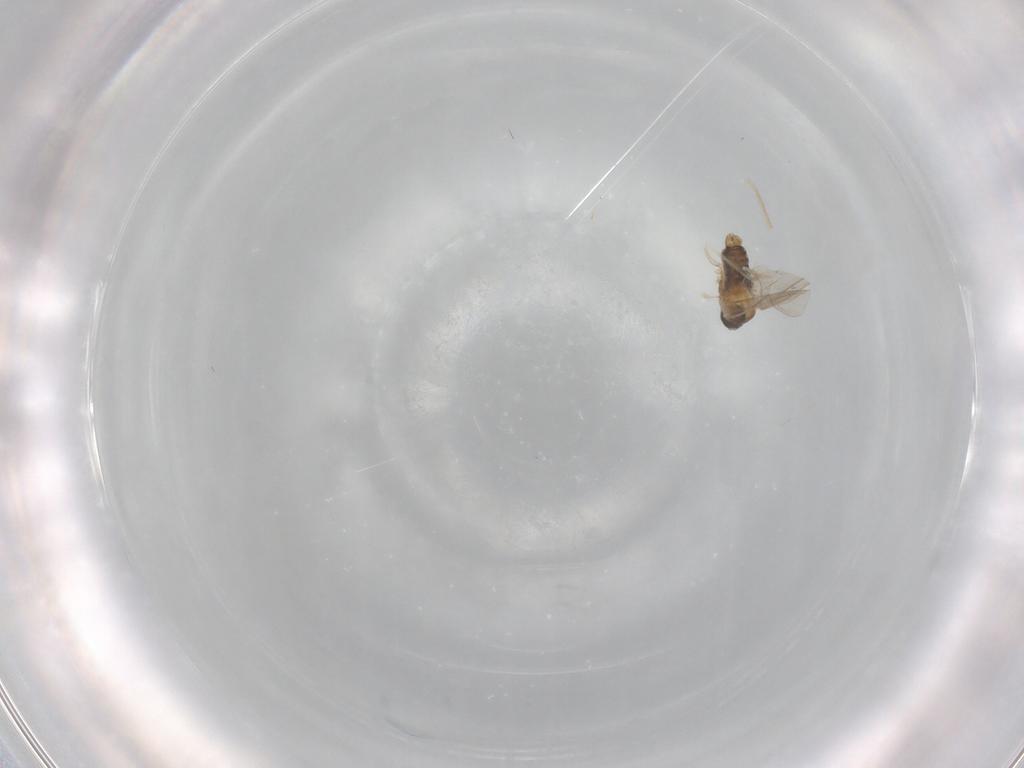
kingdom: Animalia
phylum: Arthropoda
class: Insecta
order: Diptera
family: Cecidomyiidae
